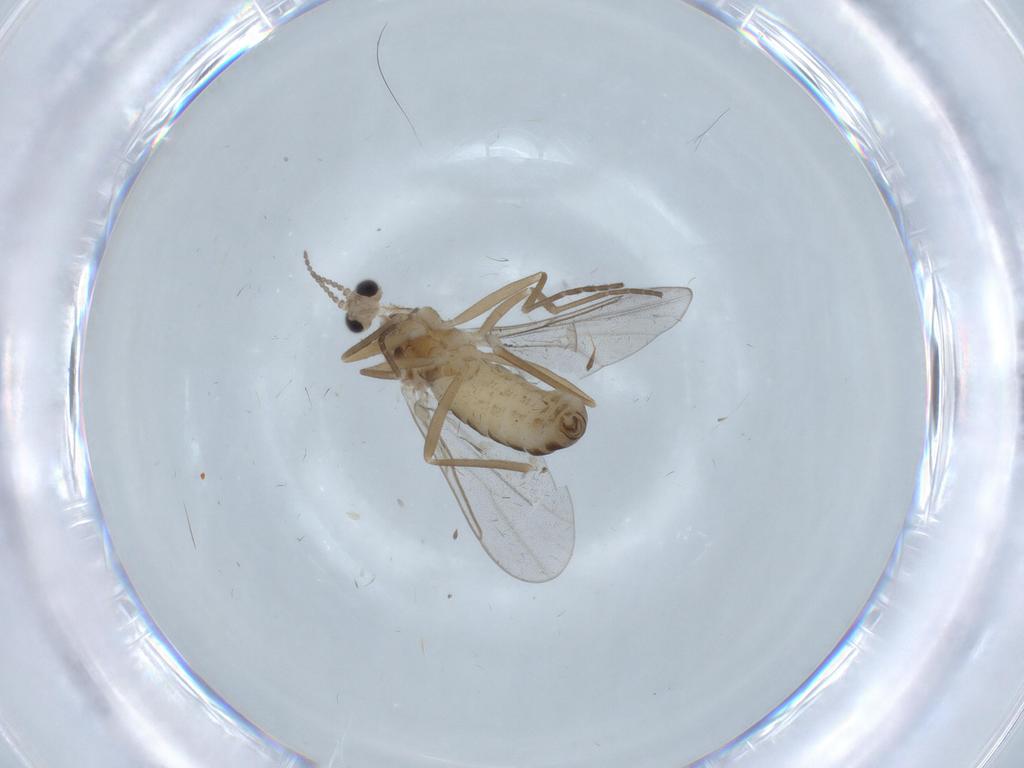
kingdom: Animalia
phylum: Arthropoda
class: Insecta
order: Diptera
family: Cecidomyiidae
